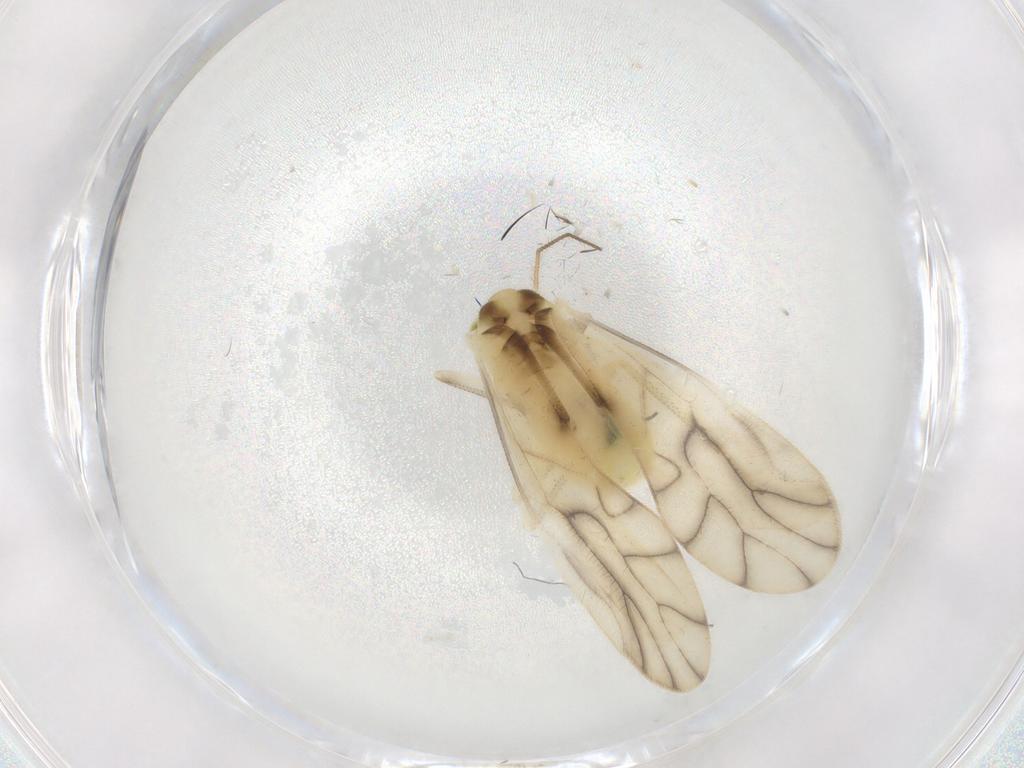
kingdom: Animalia
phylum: Arthropoda
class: Insecta
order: Psocodea
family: Caeciliusidae
